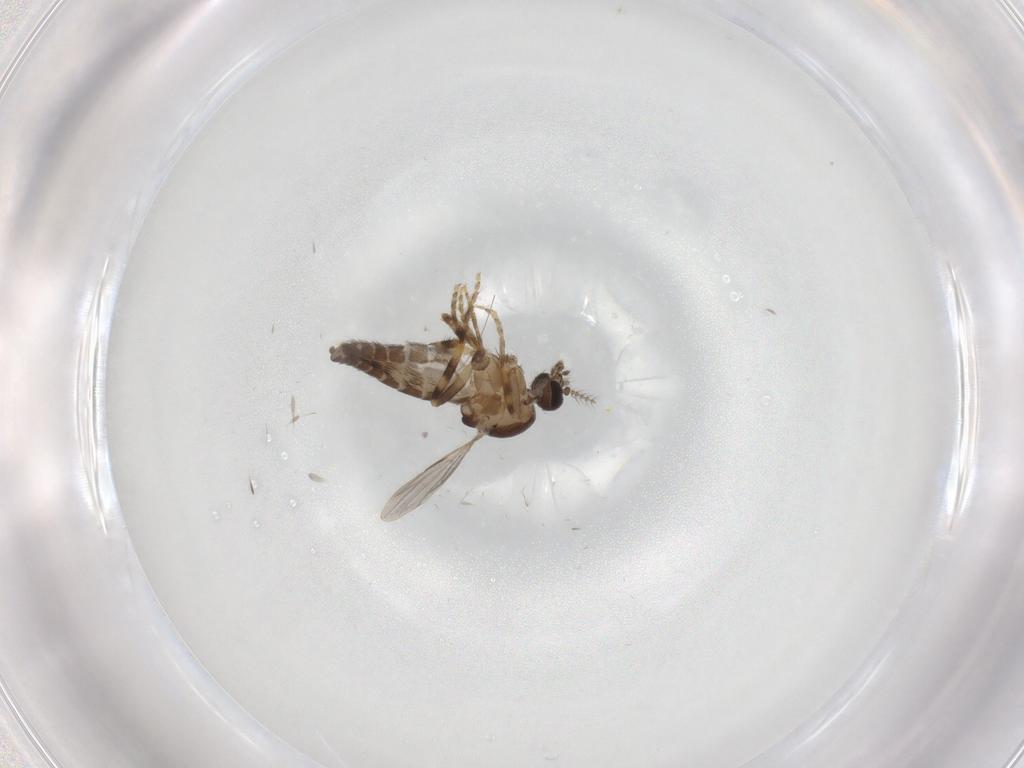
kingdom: Animalia
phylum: Arthropoda
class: Insecta
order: Diptera
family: Ceratopogonidae
